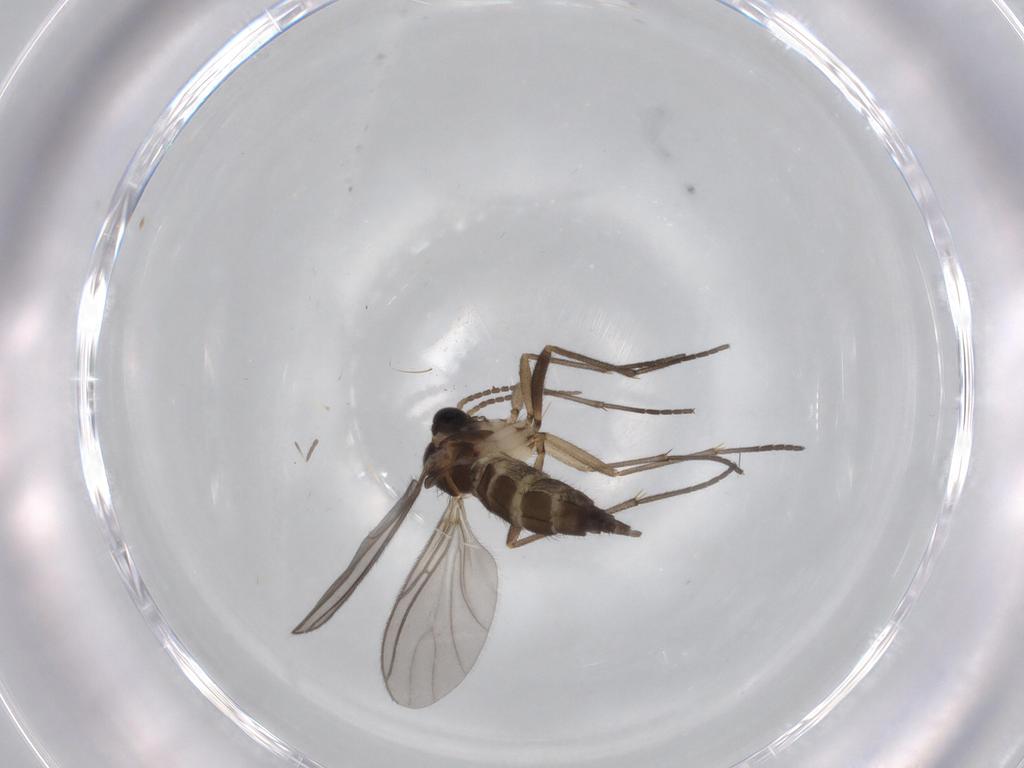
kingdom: Animalia
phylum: Arthropoda
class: Insecta
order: Diptera
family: Sciaridae
